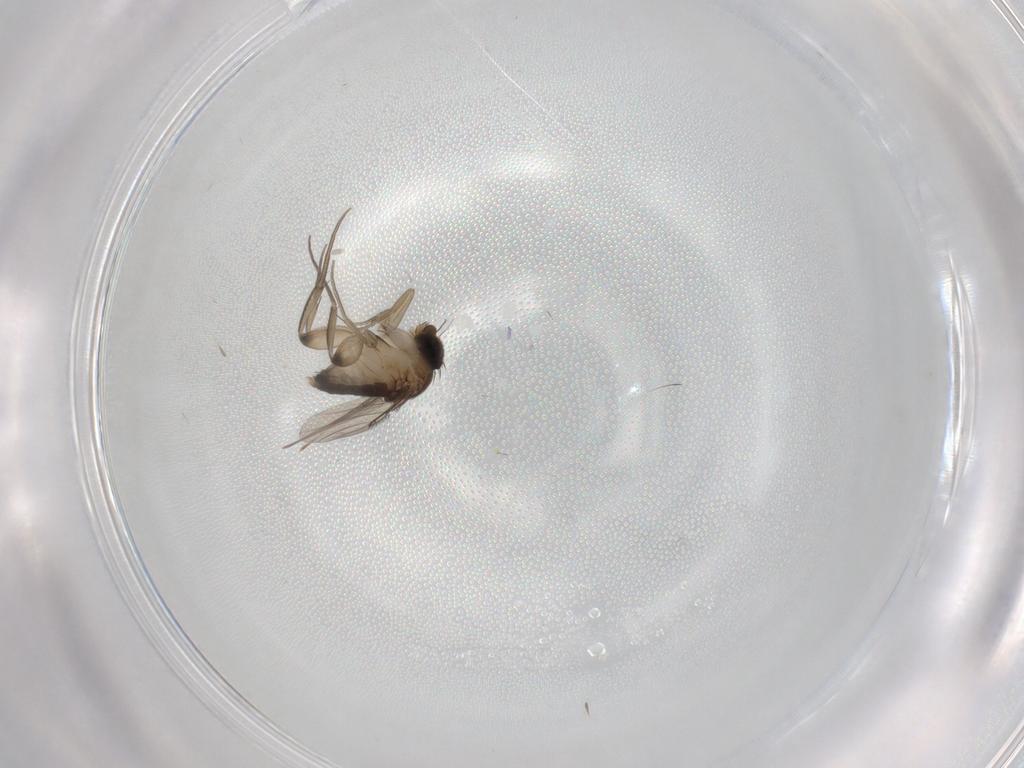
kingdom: Animalia
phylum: Arthropoda
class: Insecta
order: Diptera
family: Phoridae
